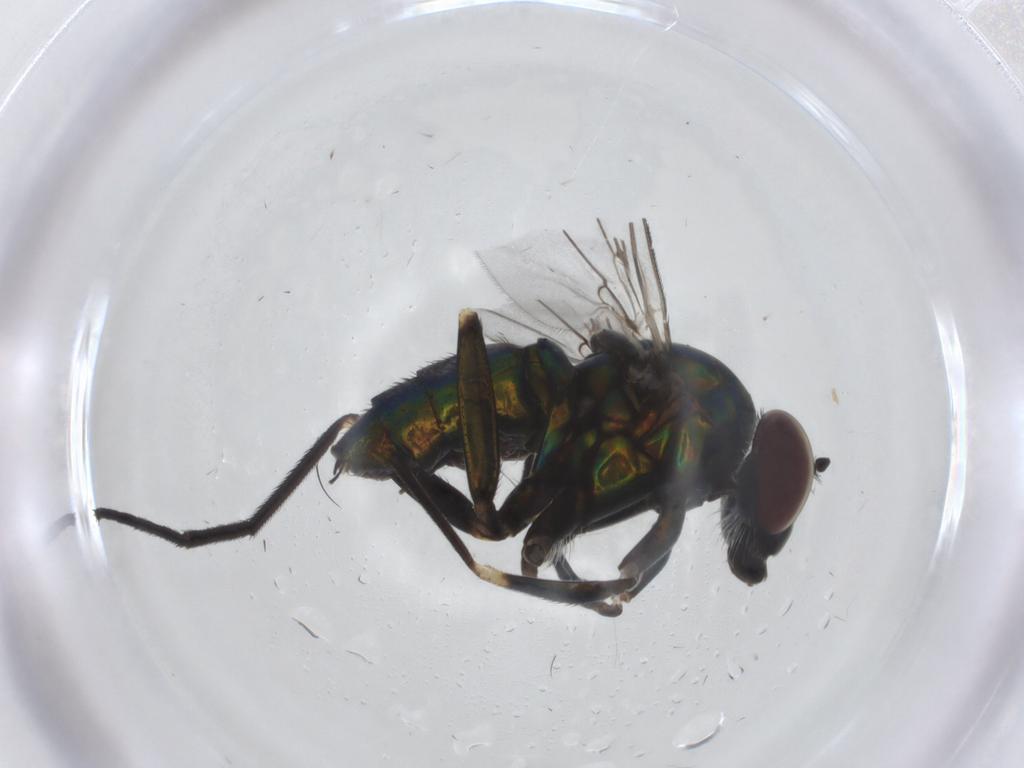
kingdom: Animalia
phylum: Arthropoda
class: Insecta
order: Diptera
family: Dolichopodidae
